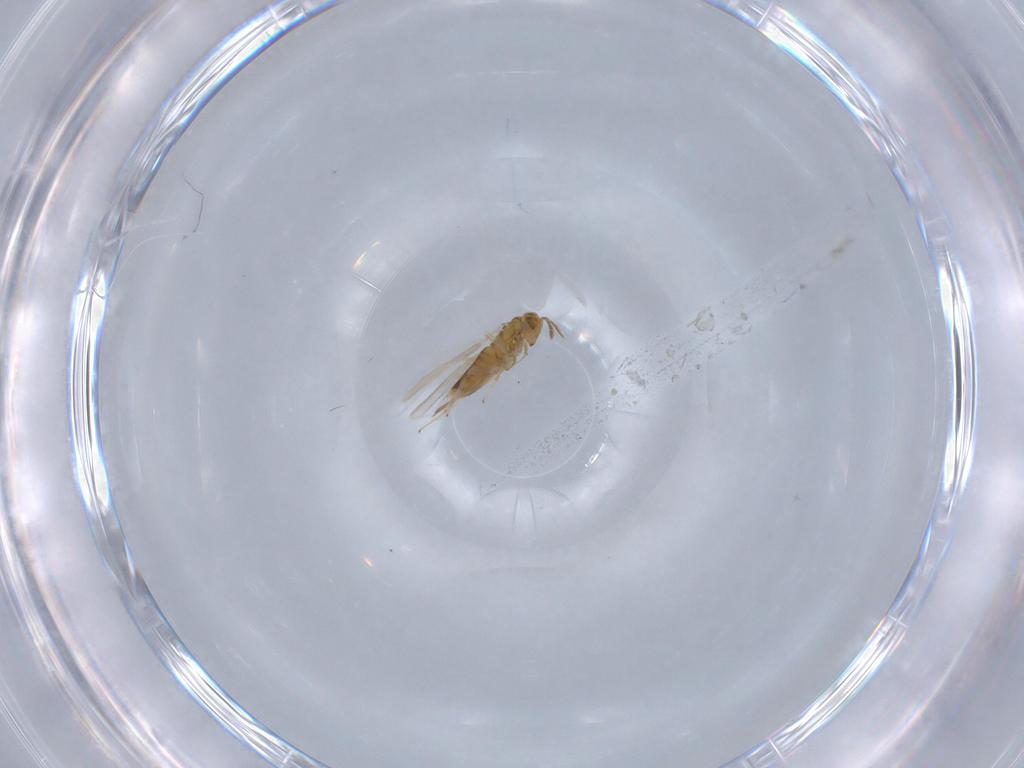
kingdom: Animalia
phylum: Arthropoda
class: Insecta
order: Hymenoptera
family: Aphelinidae
